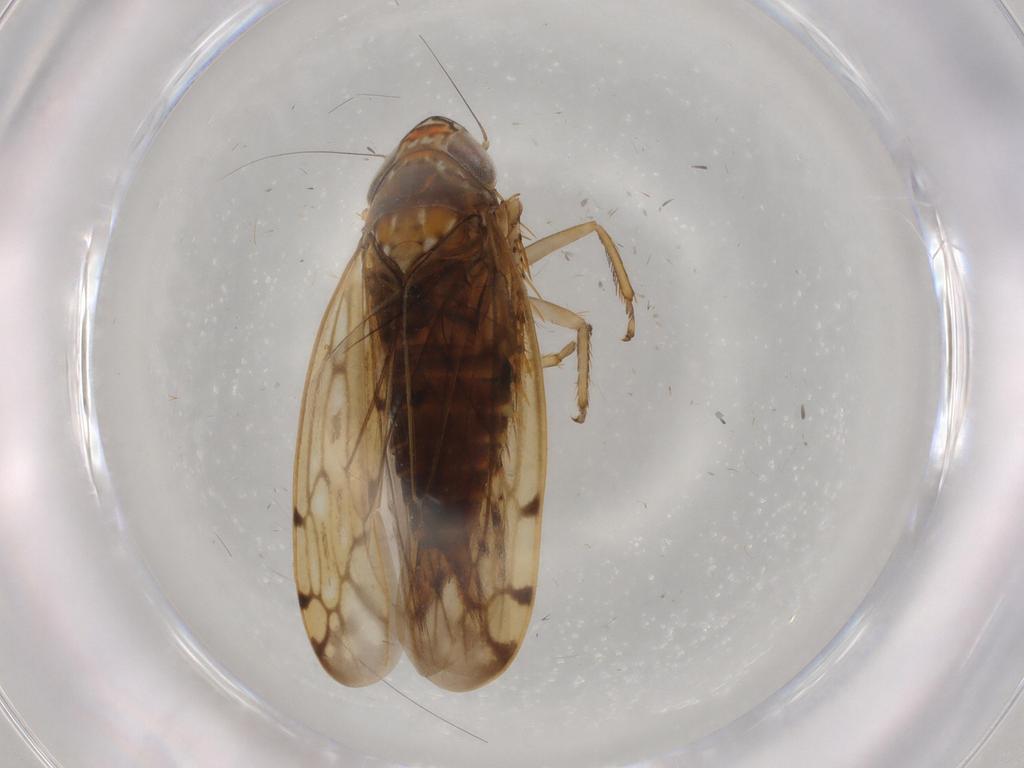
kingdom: Animalia
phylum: Arthropoda
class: Insecta
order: Hemiptera
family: Cicadellidae
